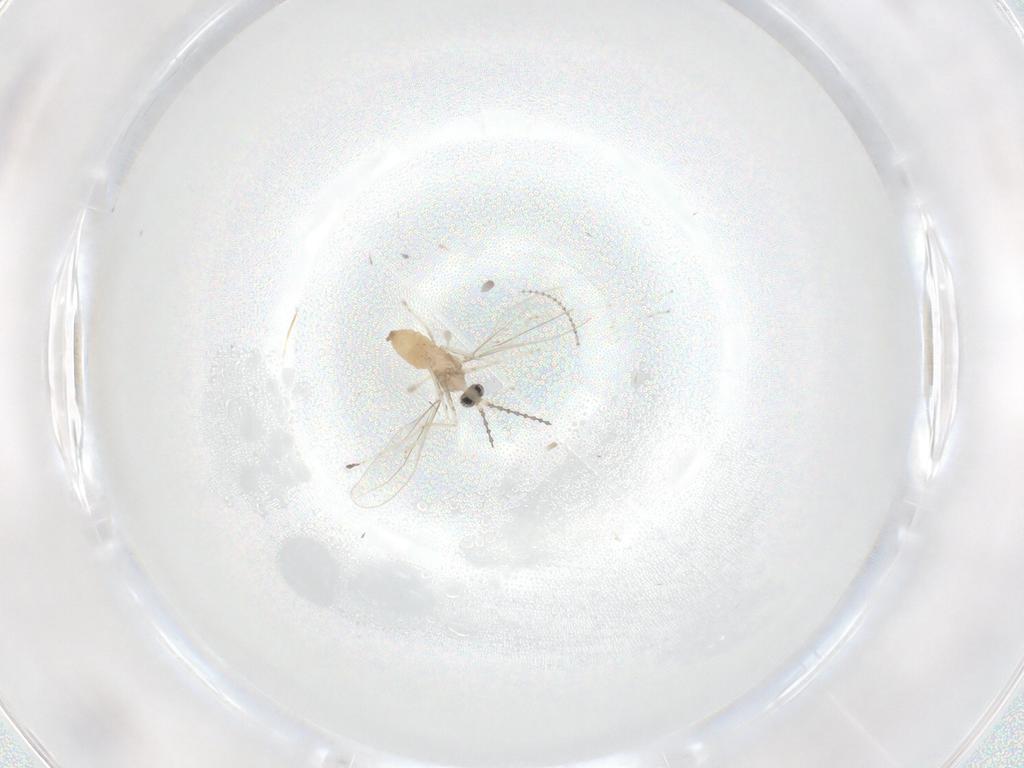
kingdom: Animalia
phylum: Arthropoda
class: Insecta
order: Diptera
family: Cecidomyiidae
